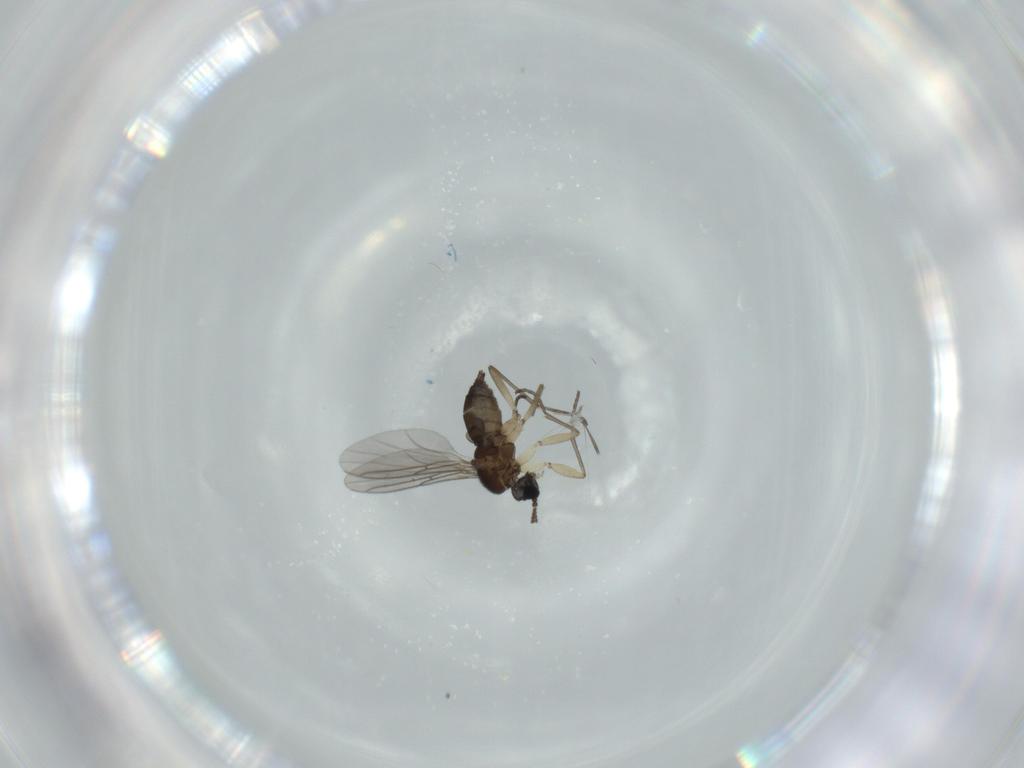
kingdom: Animalia
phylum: Arthropoda
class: Insecta
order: Diptera
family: Sciaridae
